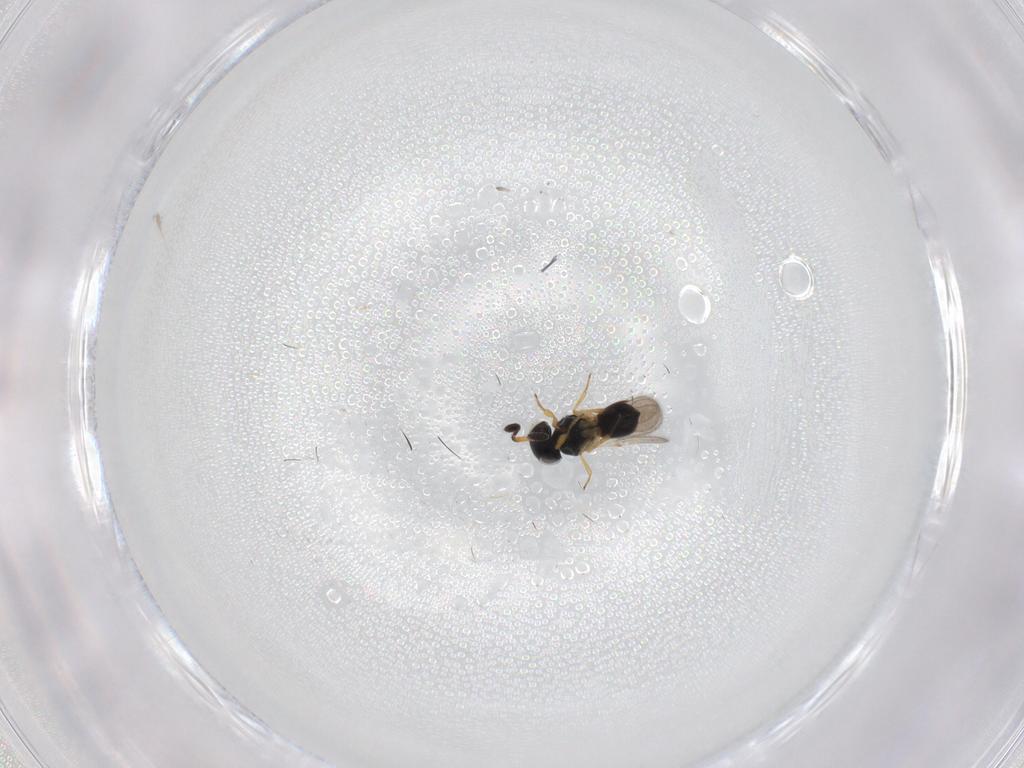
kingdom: Animalia
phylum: Arthropoda
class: Insecta
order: Hymenoptera
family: Scelionidae
